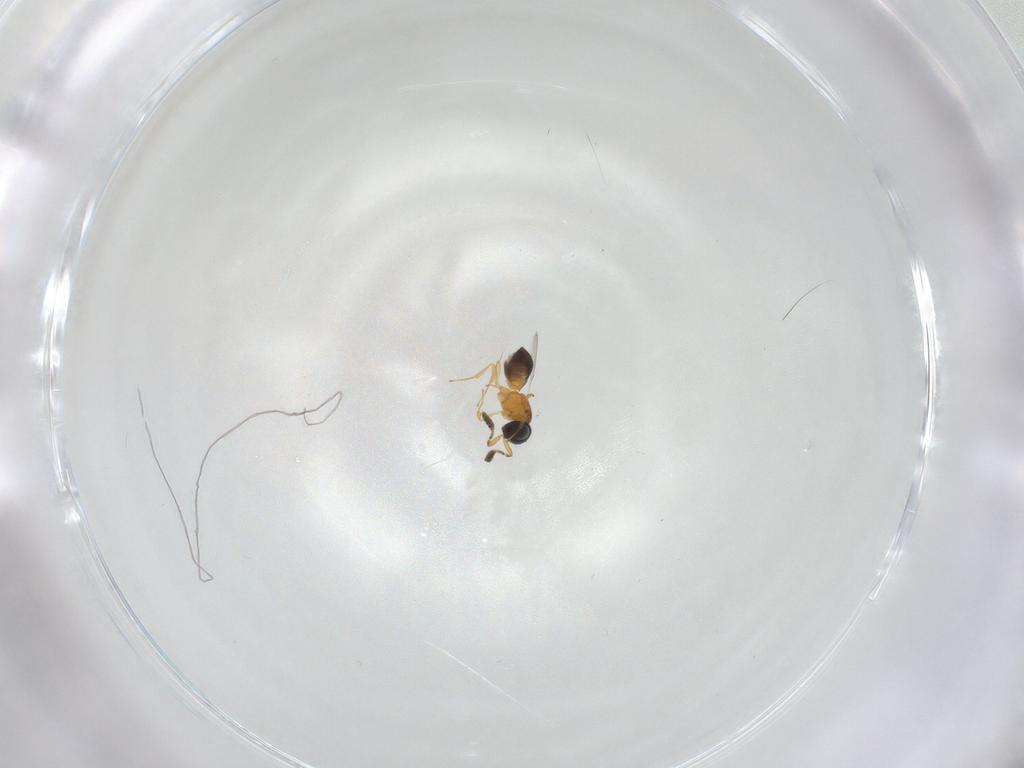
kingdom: Animalia
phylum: Arthropoda
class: Insecta
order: Hymenoptera
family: Scelionidae
